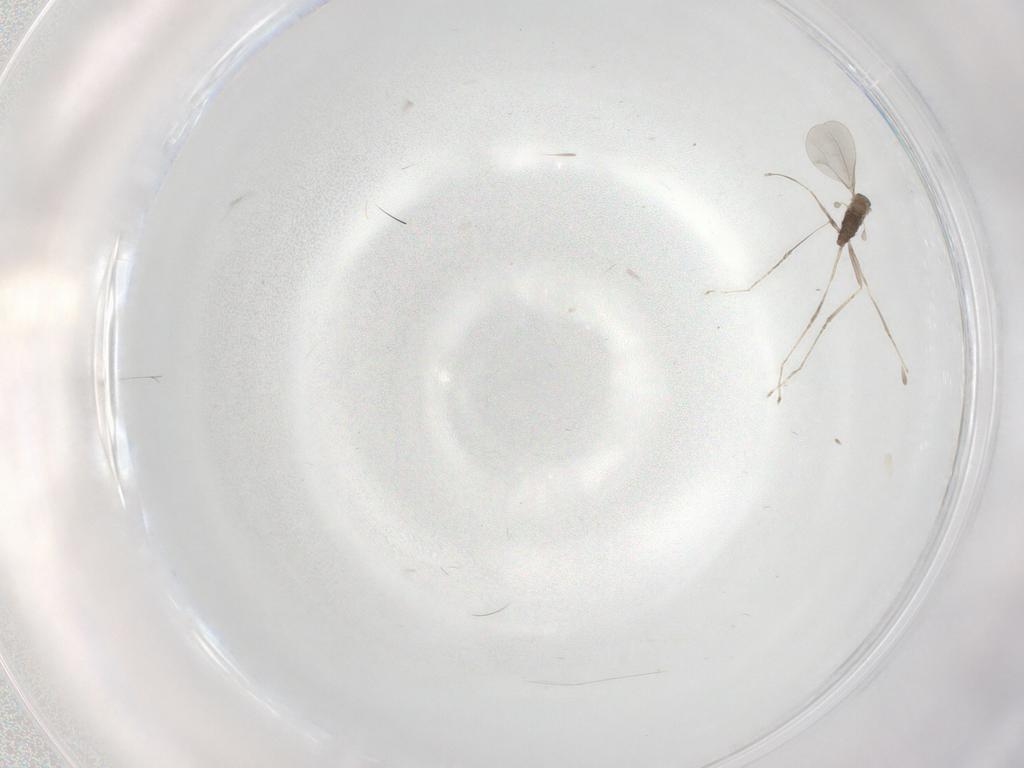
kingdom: Animalia
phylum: Arthropoda
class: Insecta
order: Diptera
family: Cecidomyiidae
